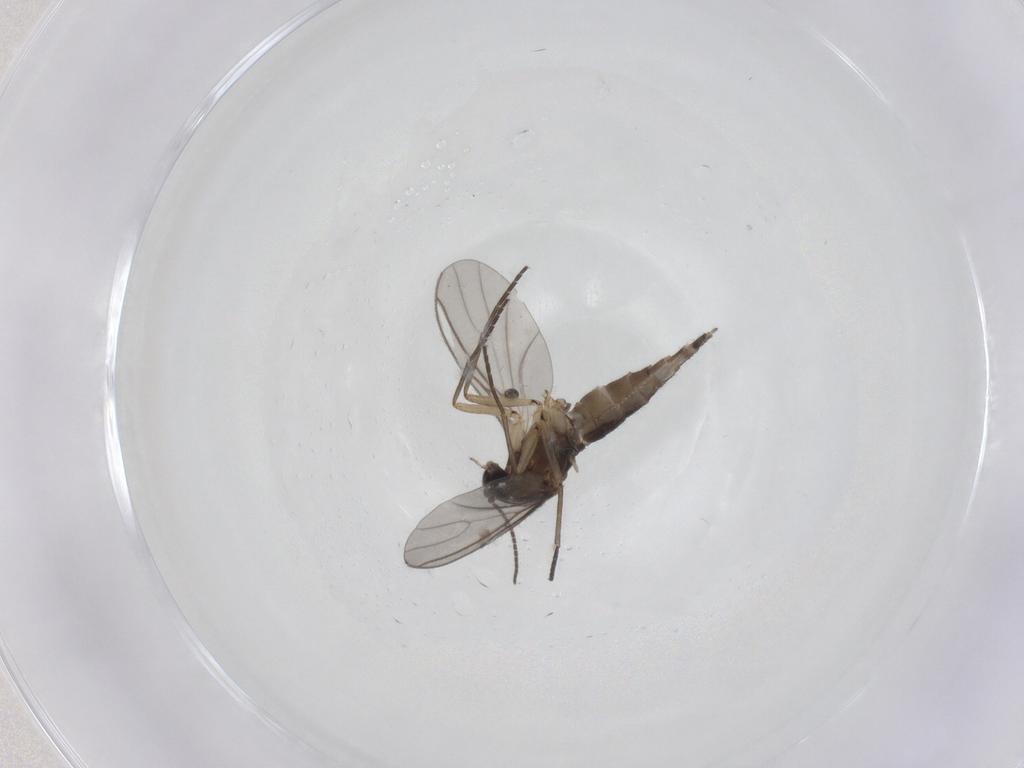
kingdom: Animalia
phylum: Arthropoda
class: Insecta
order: Diptera
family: Sciaridae
